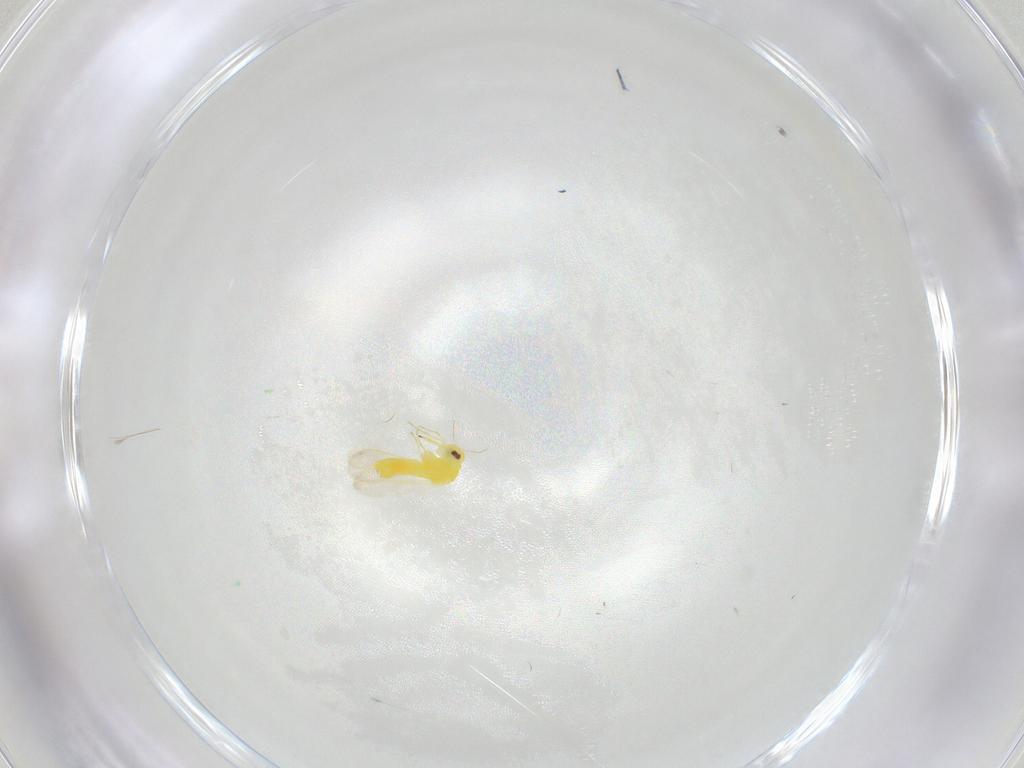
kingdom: Animalia
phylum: Arthropoda
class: Insecta
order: Hemiptera
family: Aleyrodidae
